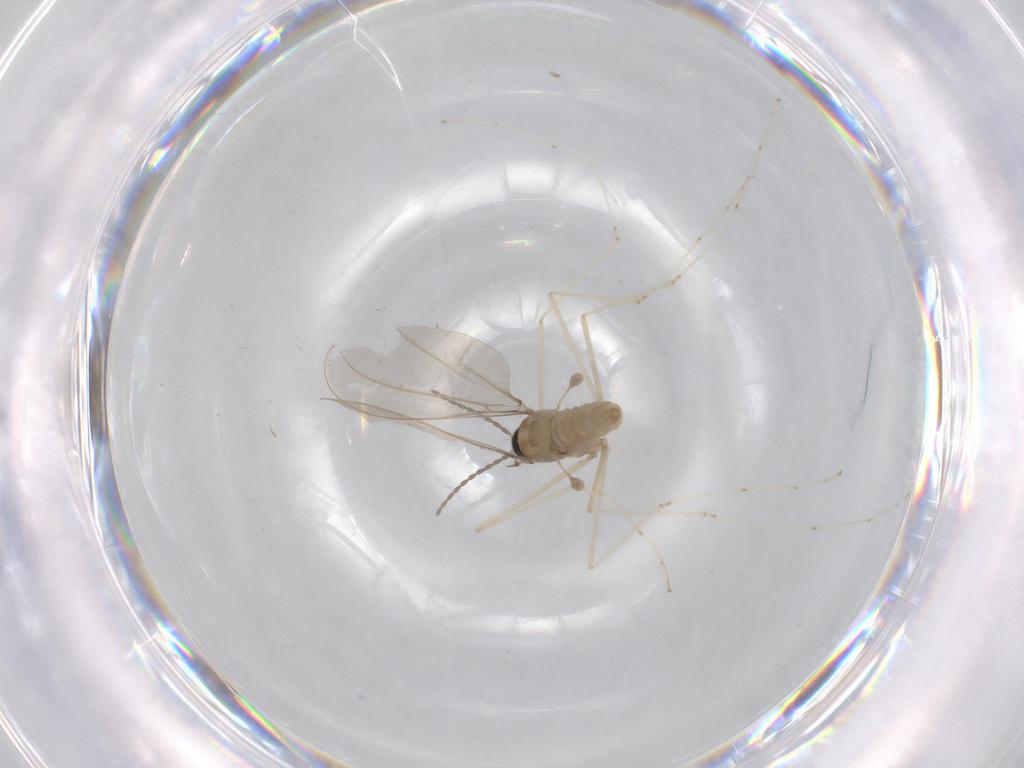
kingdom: Animalia
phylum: Arthropoda
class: Insecta
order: Diptera
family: Cecidomyiidae
